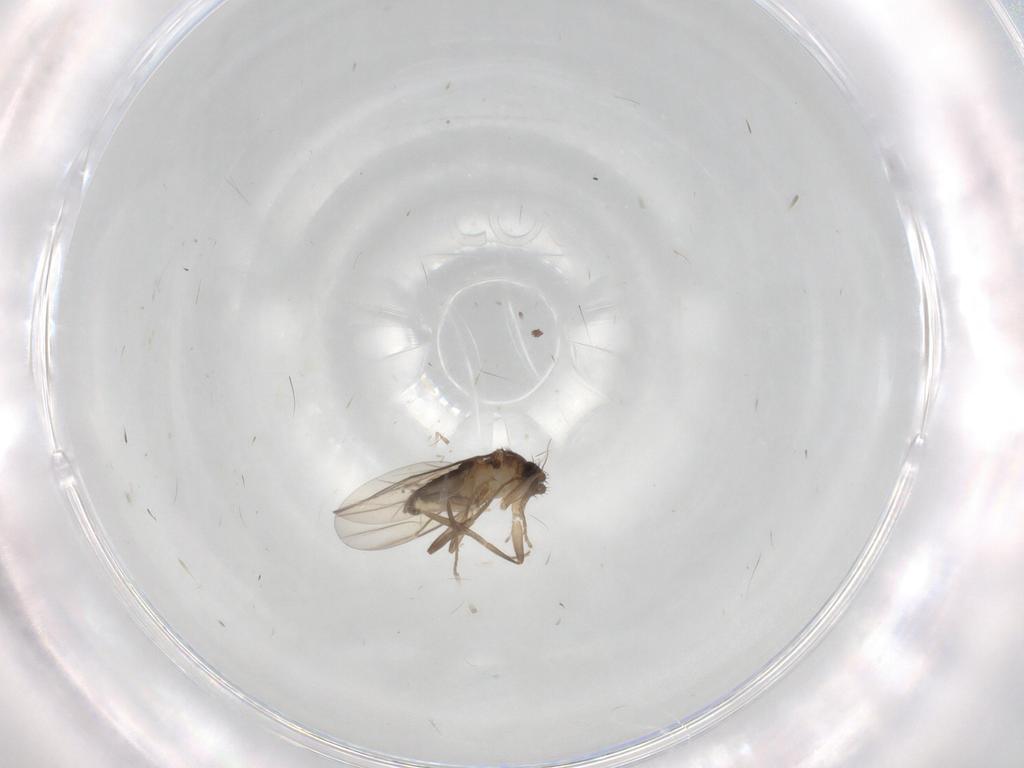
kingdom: Animalia
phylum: Arthropoda
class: Insecta
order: Diptera
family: Phoridae
